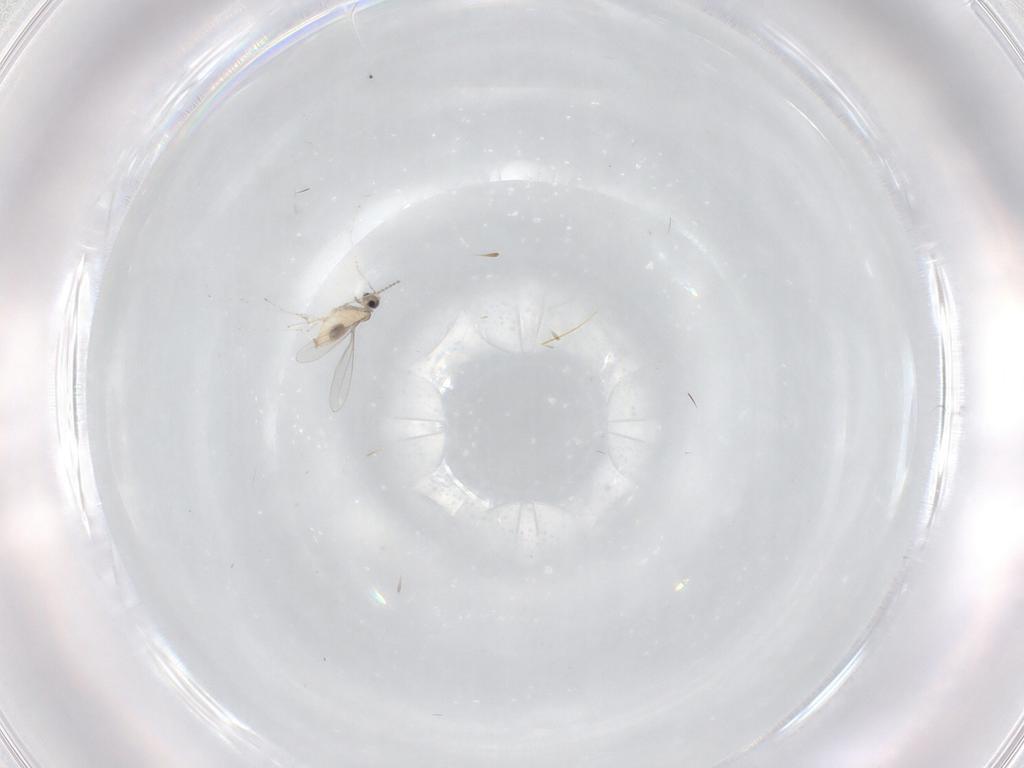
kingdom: Animalia
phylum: Arthropoda
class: Insecta
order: Diptera
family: Cecidomyiidae
